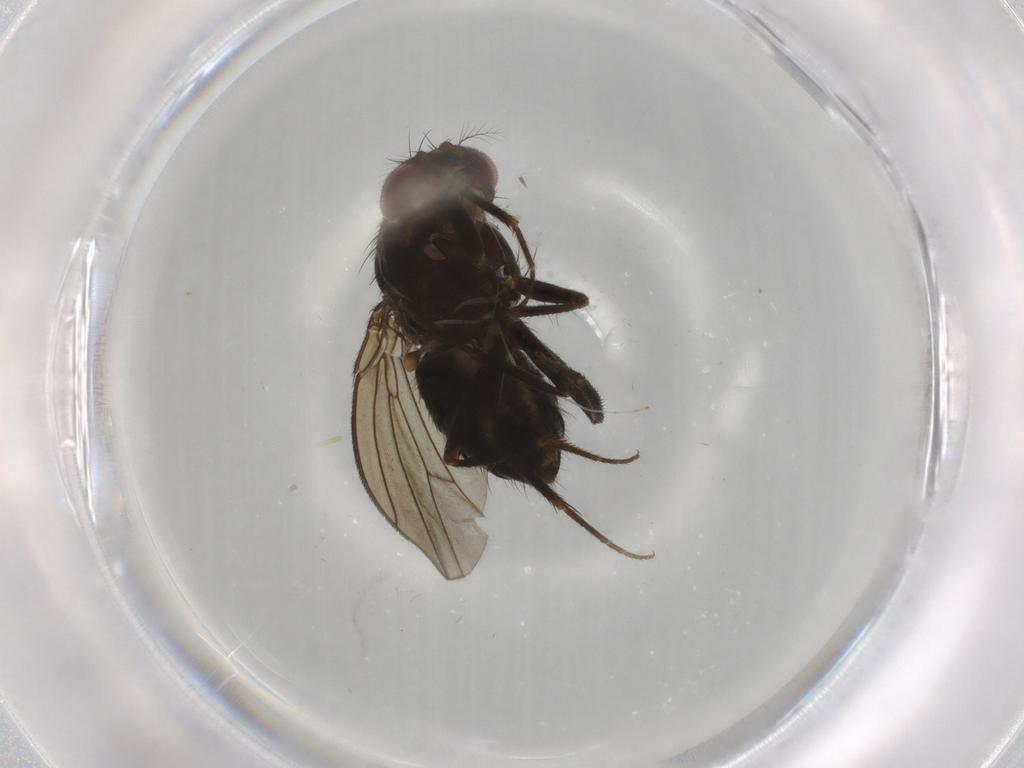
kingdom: Animalia
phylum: Arthropoda
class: Insecta
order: Diptera
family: Drosophilidae
